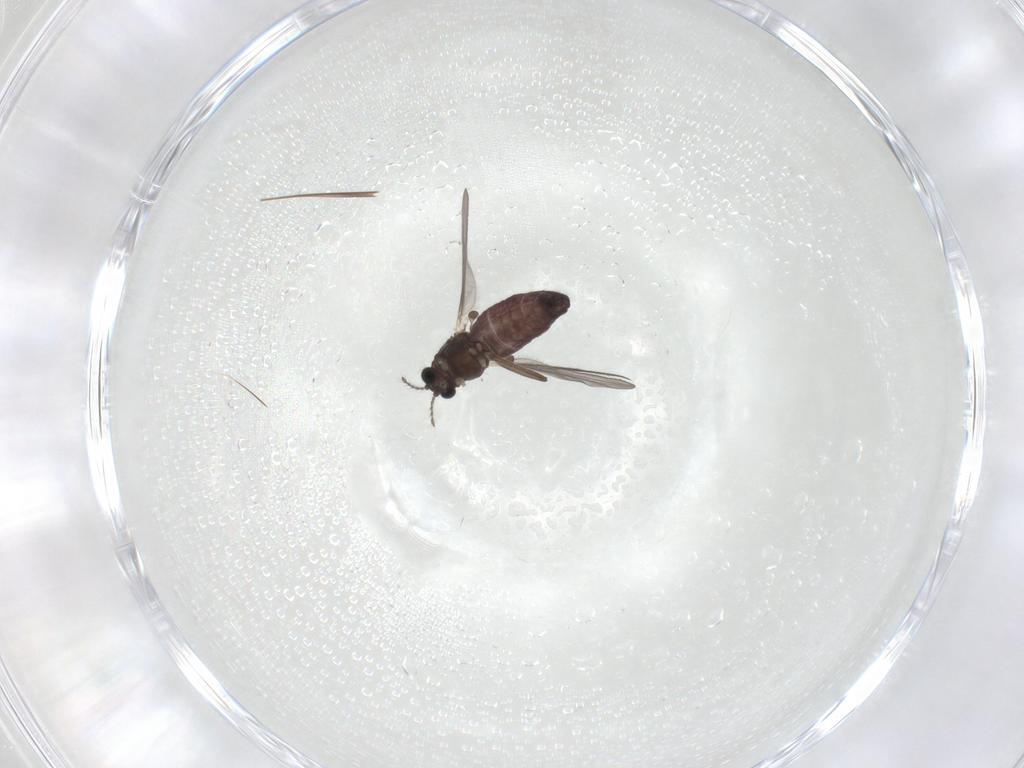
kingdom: Animalia
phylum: Arthropoda
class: Insecta
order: Diptera
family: Chironomidae
